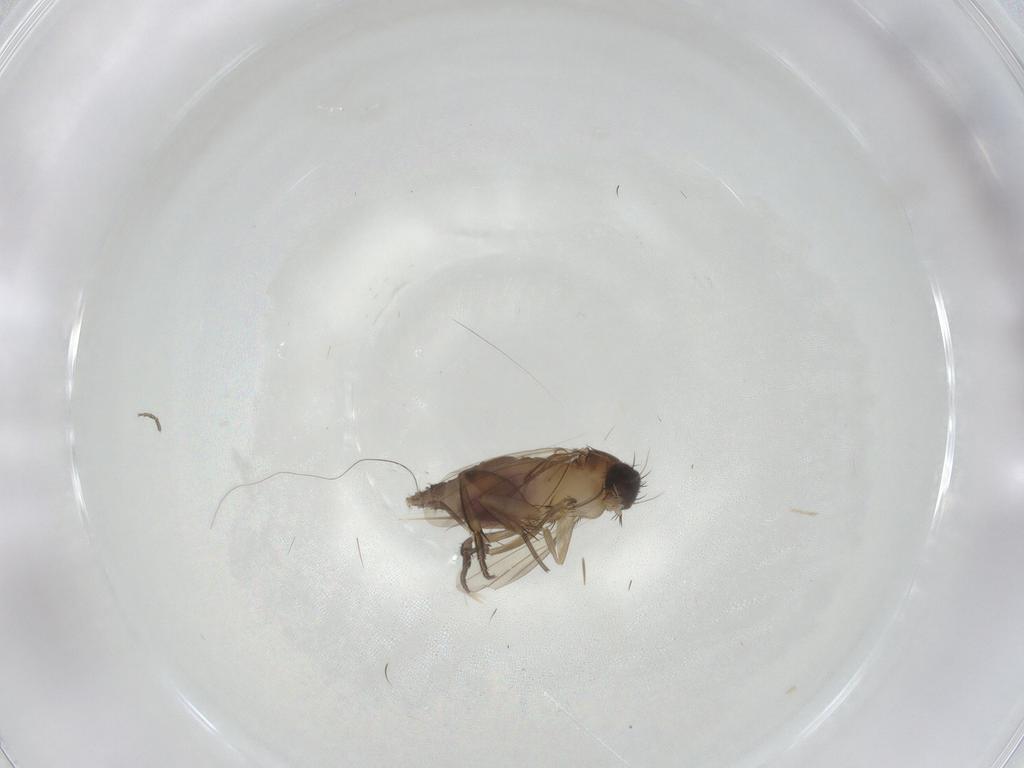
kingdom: Animalia
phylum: Arthropoda
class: Insecta
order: Diptera
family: Phoridae
